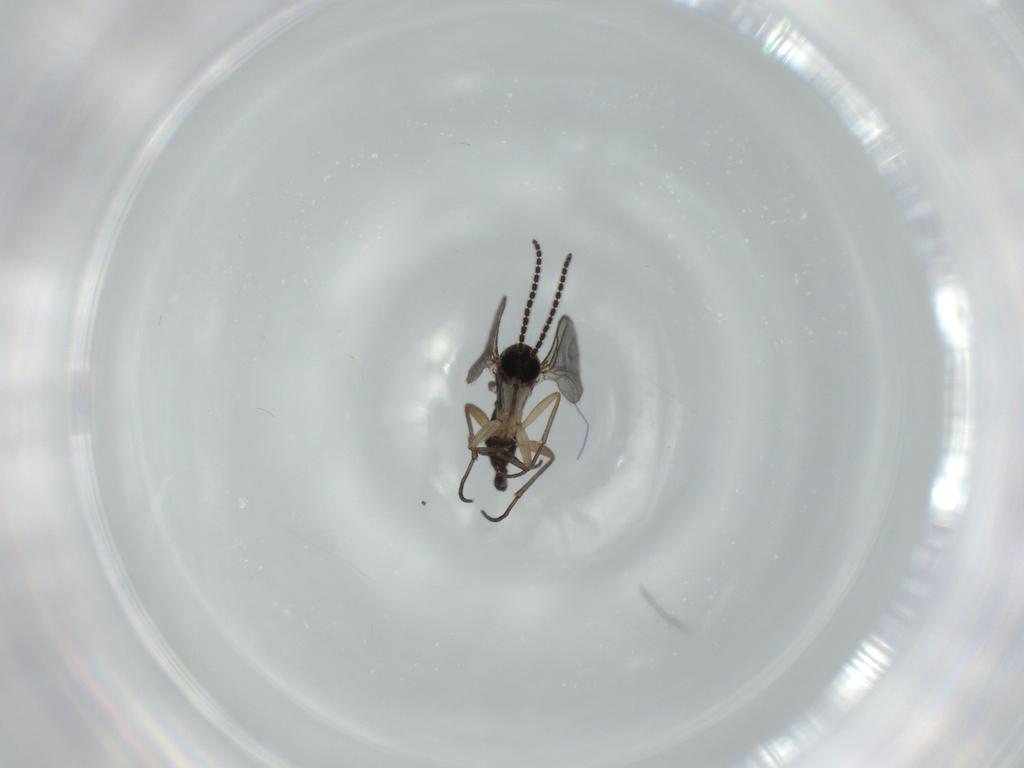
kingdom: Animalia
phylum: Arthropoda
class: Insecta
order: Diptera
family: Sciaridae
